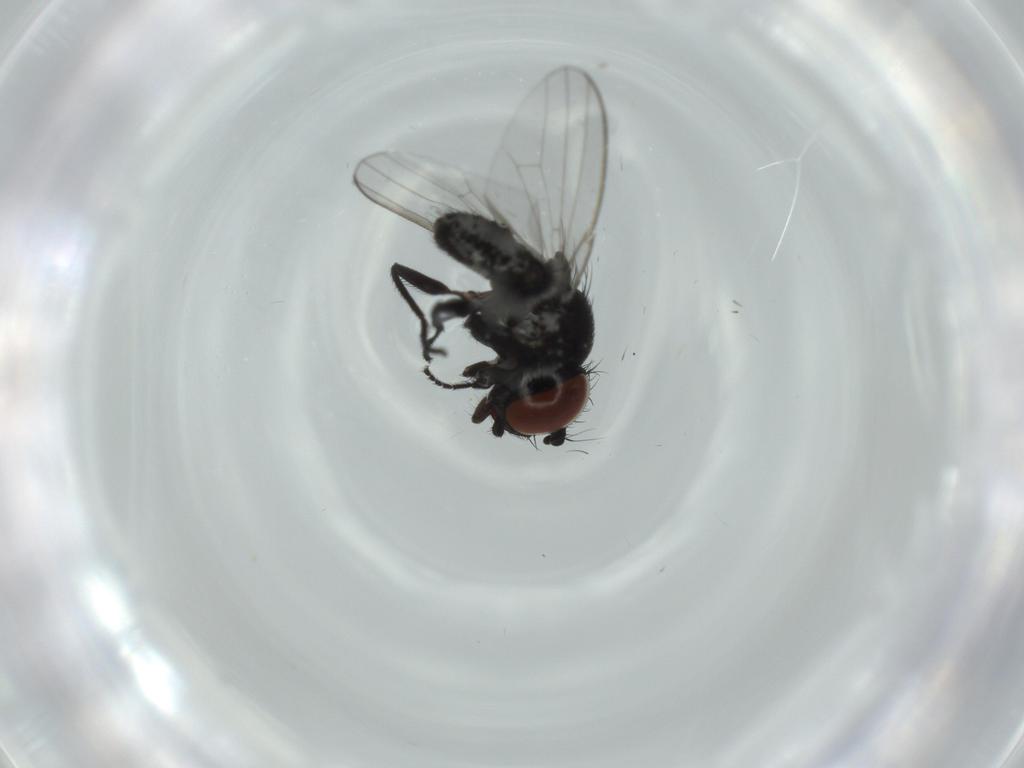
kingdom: Animalia
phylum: Arthropoda
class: Insecta
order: Diptera
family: Milichiidae
